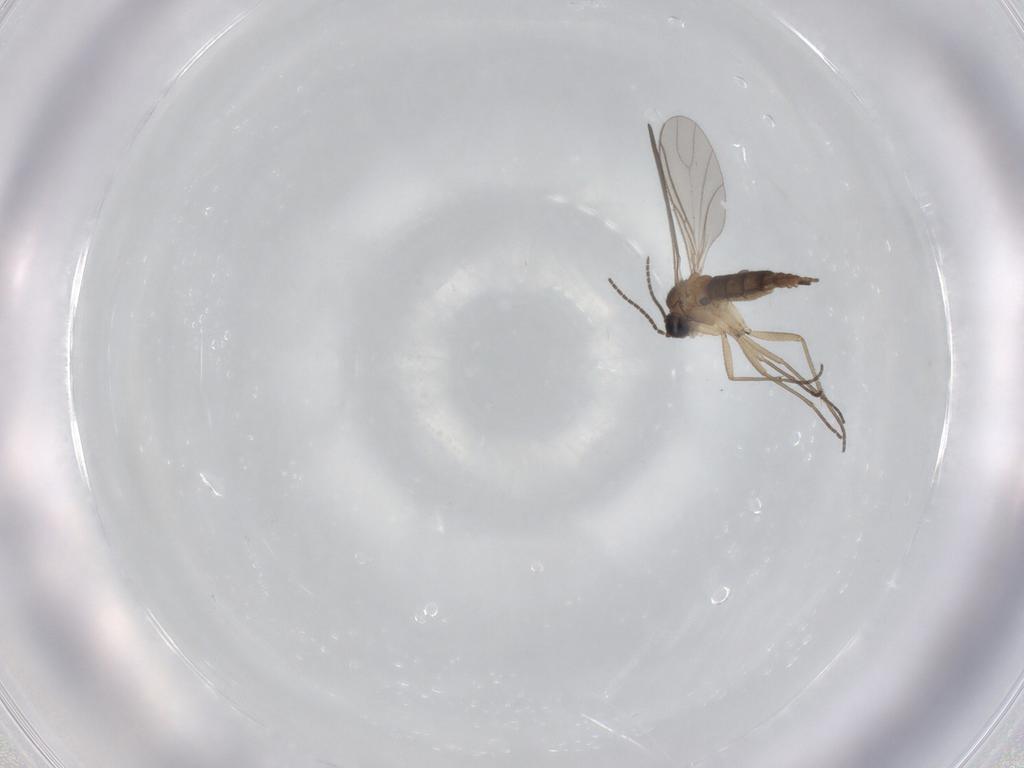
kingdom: Animalia
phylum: Arthropoda
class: Insecta
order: Diptera
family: Sciaridae
